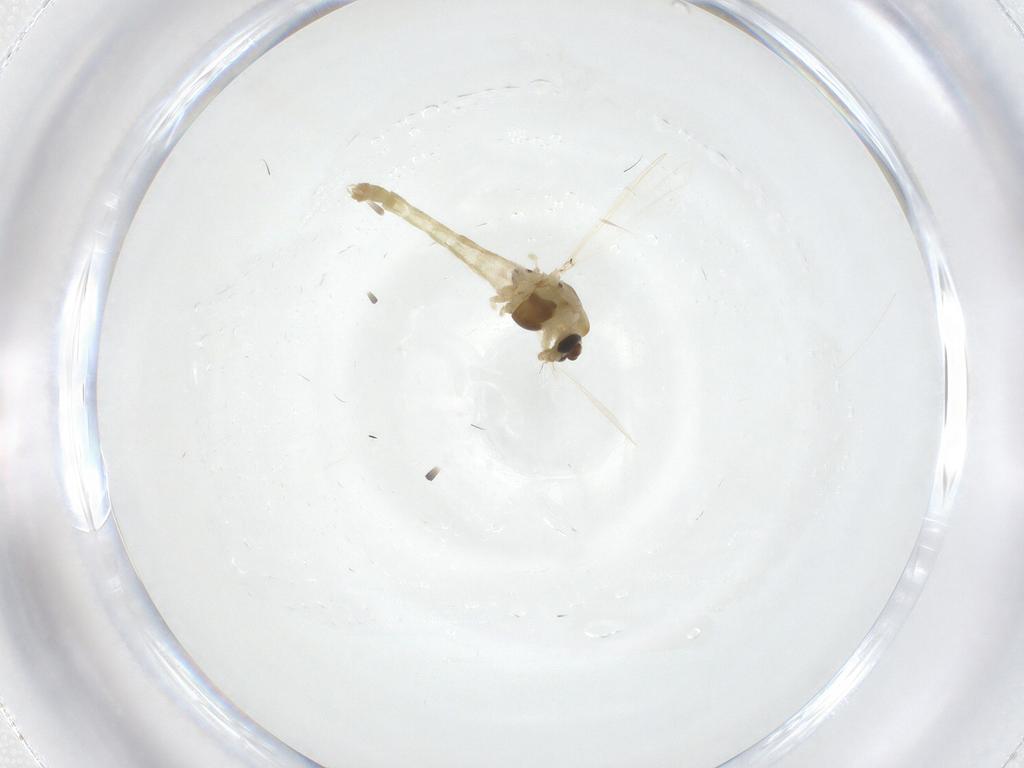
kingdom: Animalia
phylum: Arthropoda
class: Insecta
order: Diptera
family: Chironomidae
